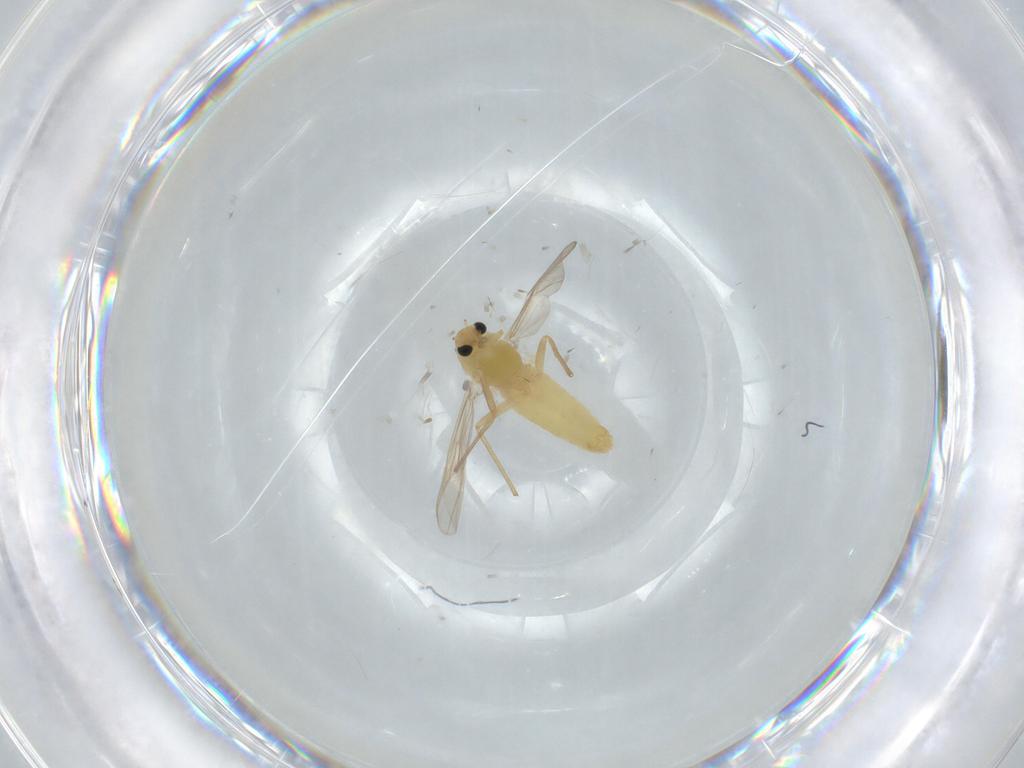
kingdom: Animalia
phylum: Arthropoda
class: Insecta
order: Diptera
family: Chironomidae
